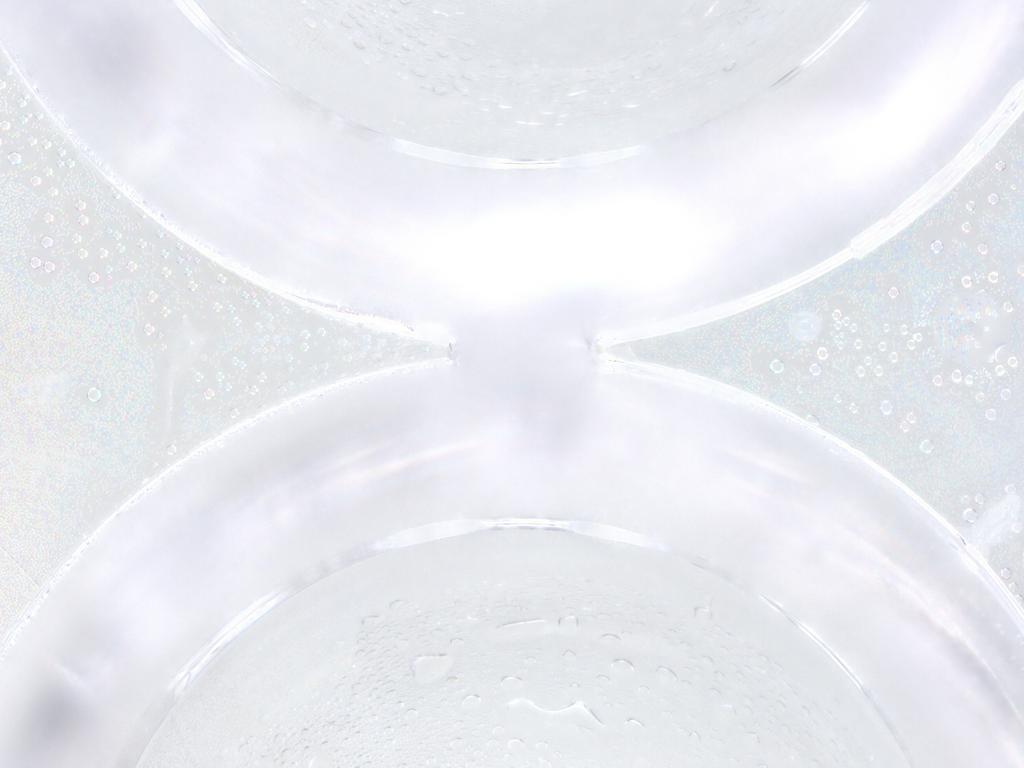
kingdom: Animalia
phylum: Arthropoda
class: Insecta
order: Diptera
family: Ceratopogonidae
